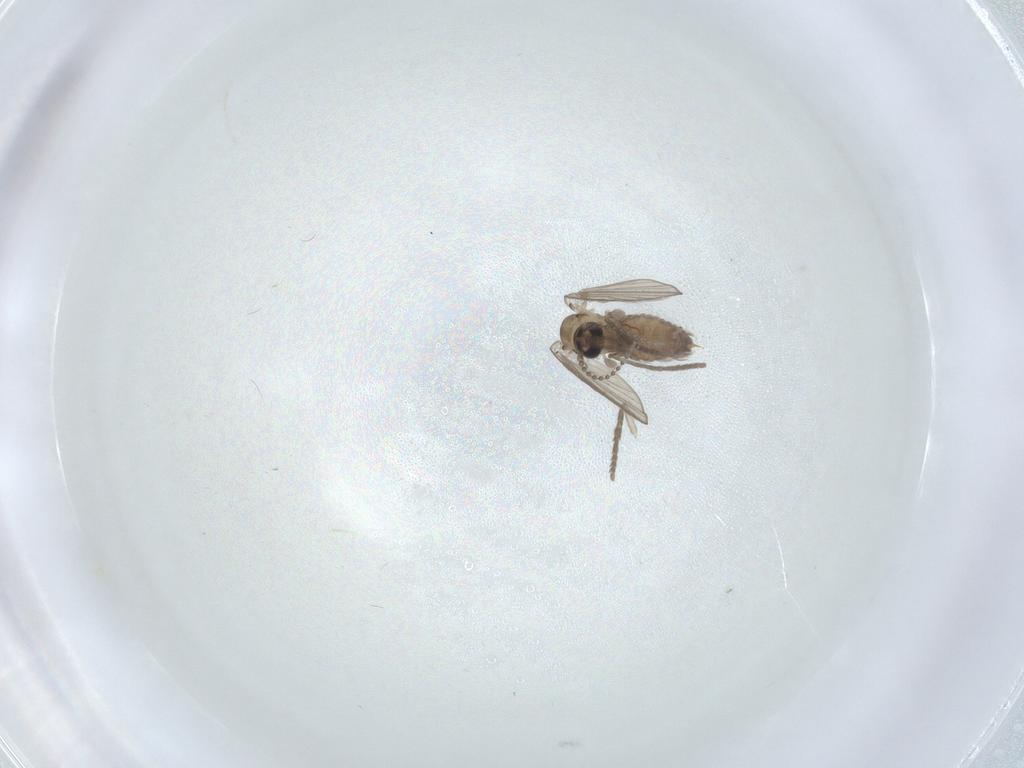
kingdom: Animalia
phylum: Arthropoda
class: Insecta
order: Diptera
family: Psychodidae
